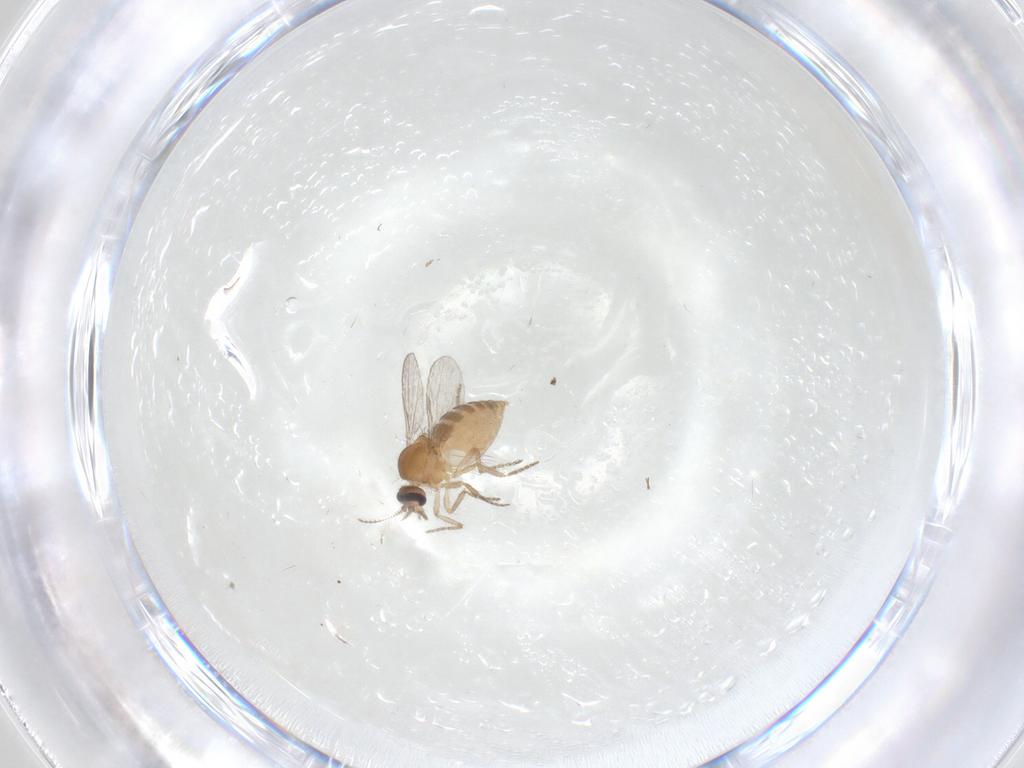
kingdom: Animalia
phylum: Arthropoda
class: Insecta
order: Diptera
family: Ceratopogonidae
